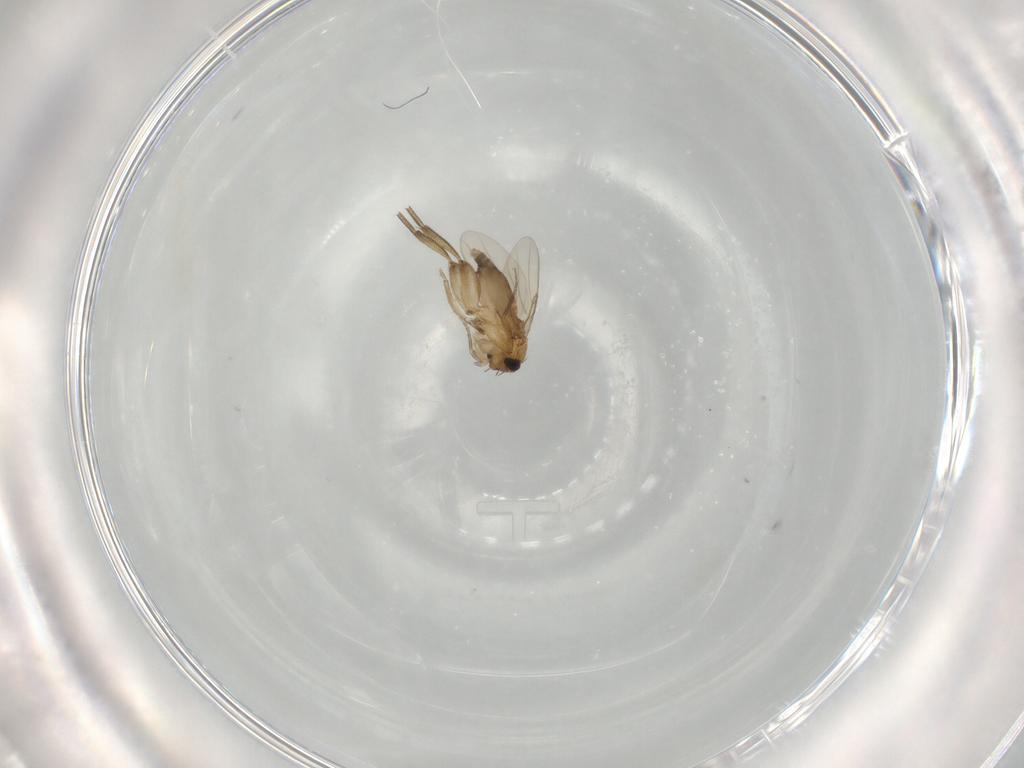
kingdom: Animalia
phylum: Arthropoda
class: Insecta
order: Diptera
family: Phoridae
